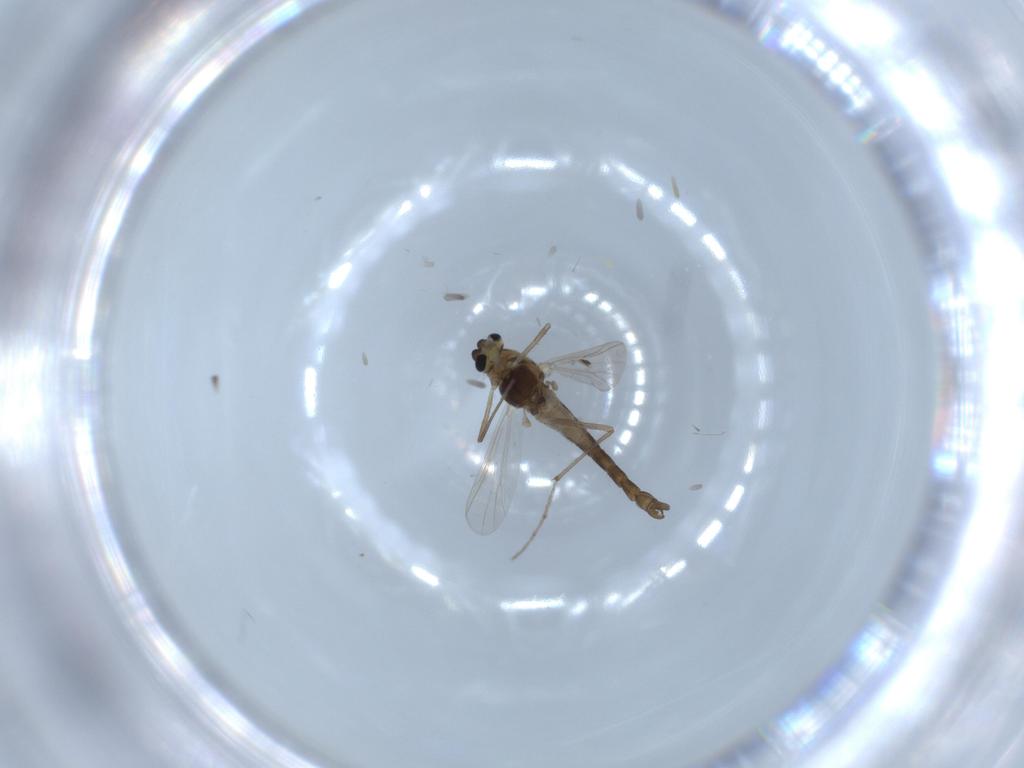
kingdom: Animalia
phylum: Arthropoda
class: Insecta
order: Diptera
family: Chironomidae
